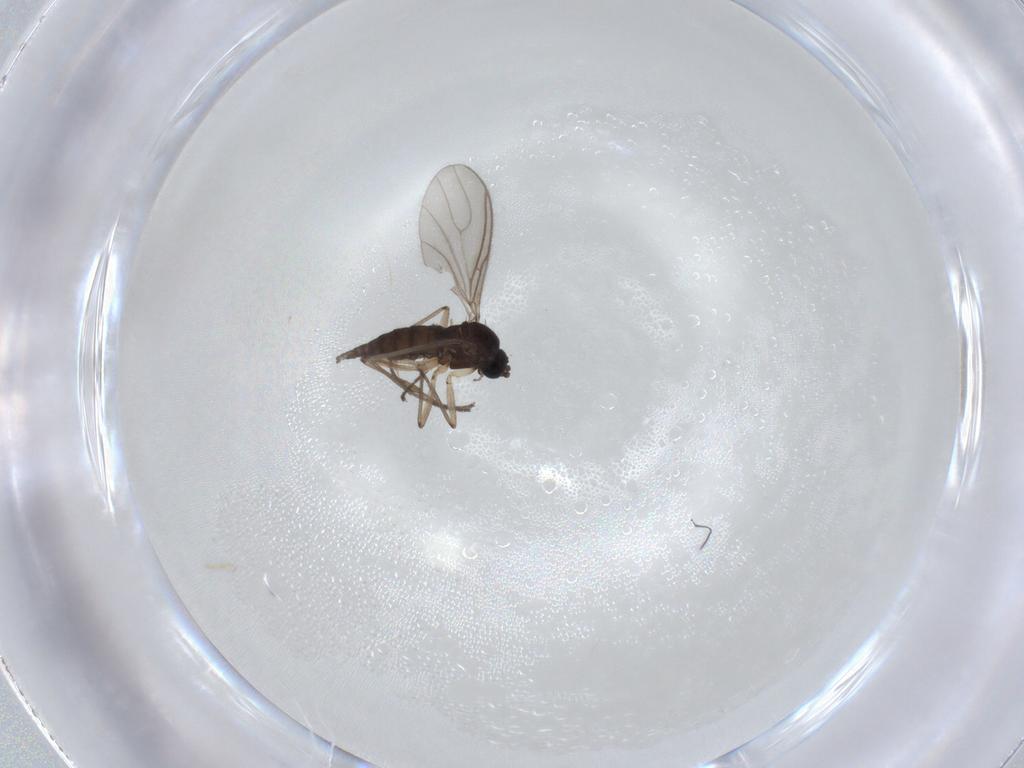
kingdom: Animalia
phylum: Arthropoda
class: Insecta
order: Diptera
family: Sciaridae
